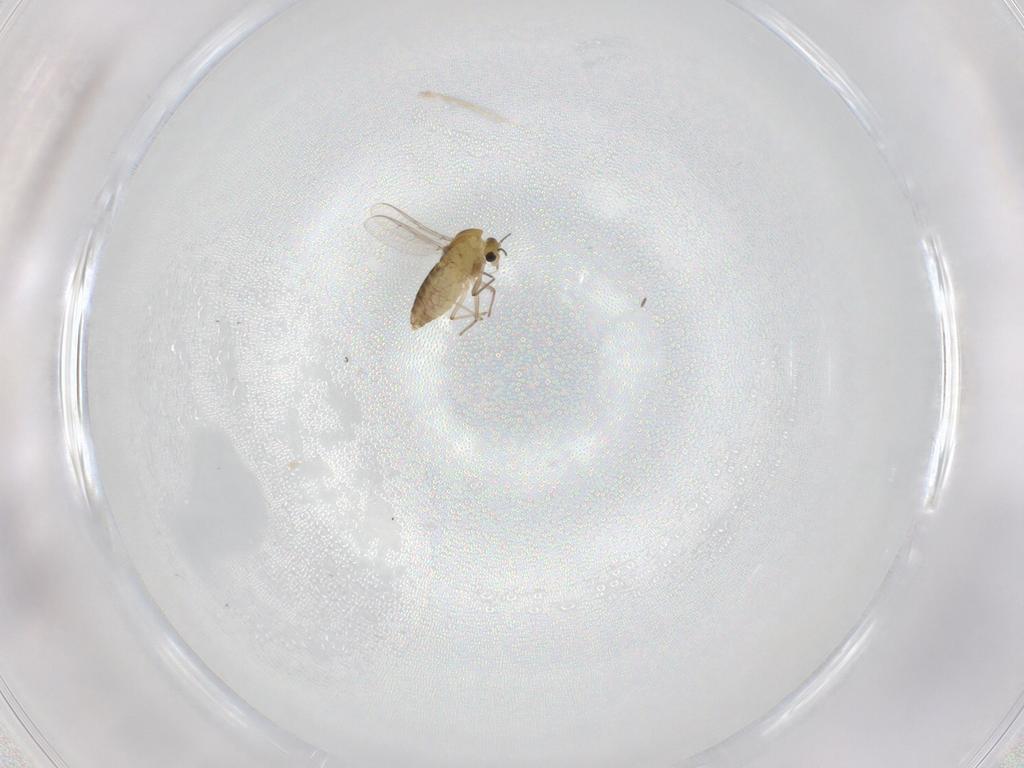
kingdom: Animalia
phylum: Arthropoda
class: Insecta
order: Diptera
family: Chironomidae
